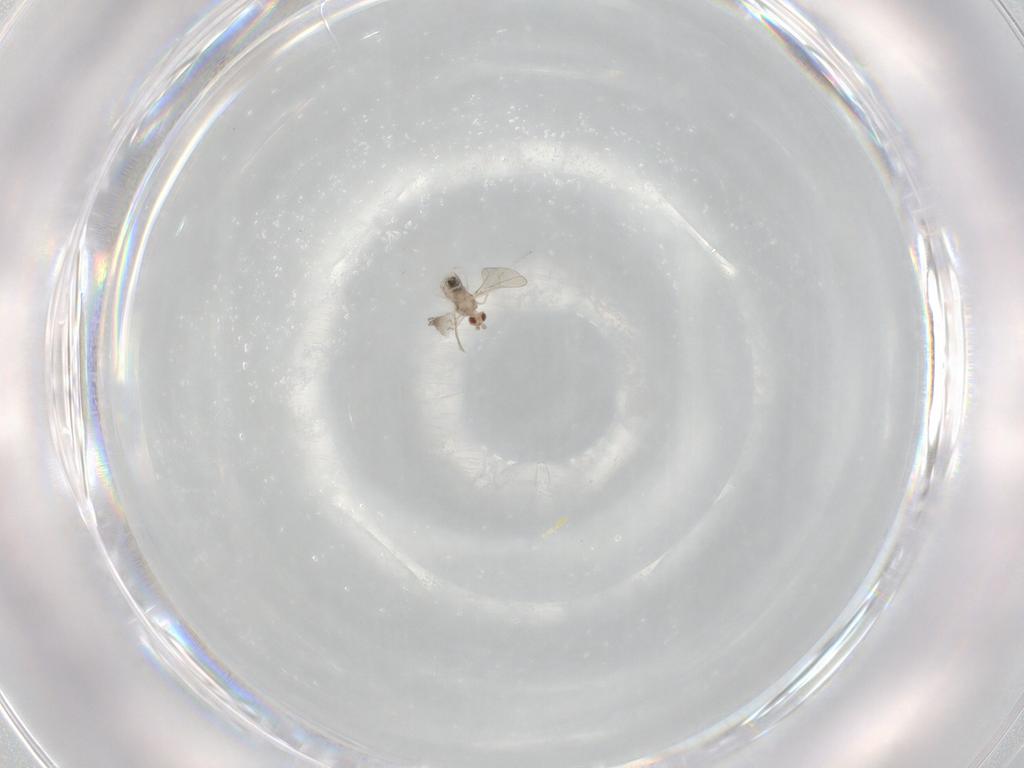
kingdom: Animalia
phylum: Arthropoda
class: Insecta
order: Diptera
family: Cecidomyiidae
